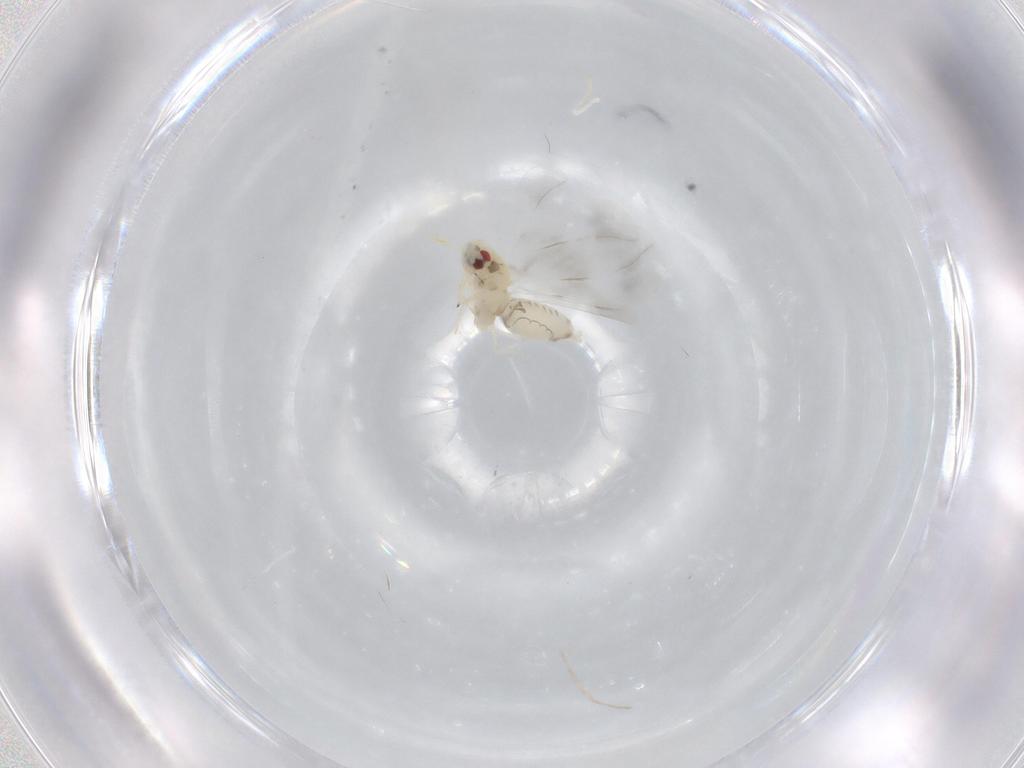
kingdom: Animalia
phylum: Arthropoda
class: Insecta
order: Hemiptera
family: Aleyrodidae
